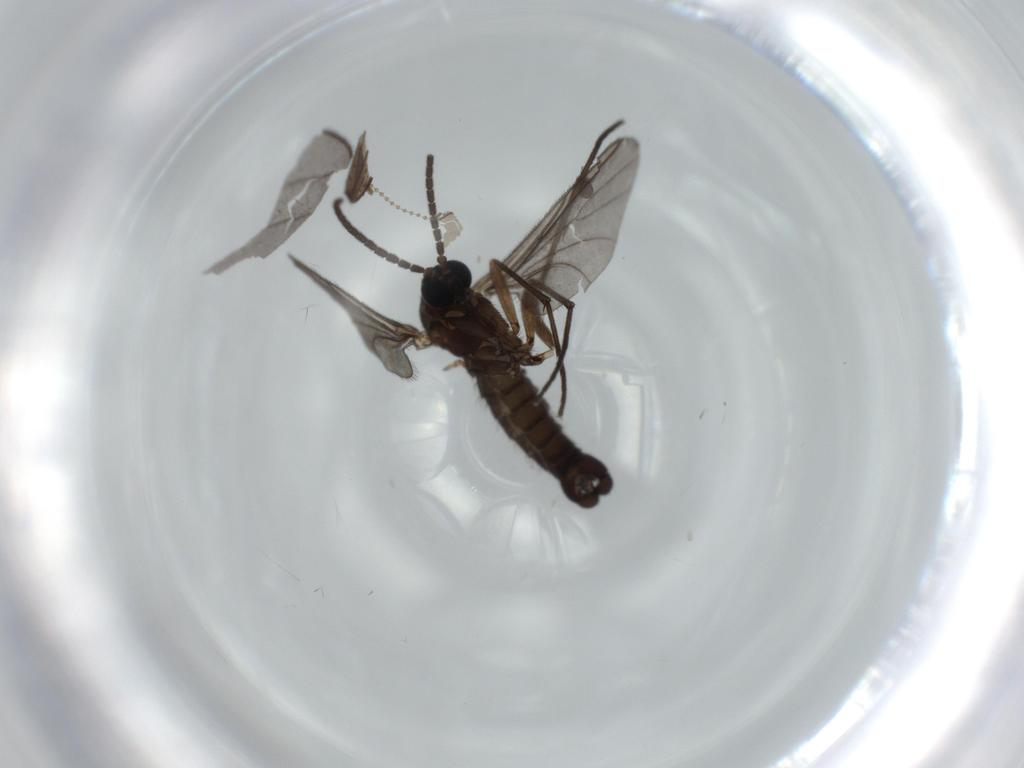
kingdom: Animalia
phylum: Arthropoda
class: Insecta
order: Diptera
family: Sciaridae
